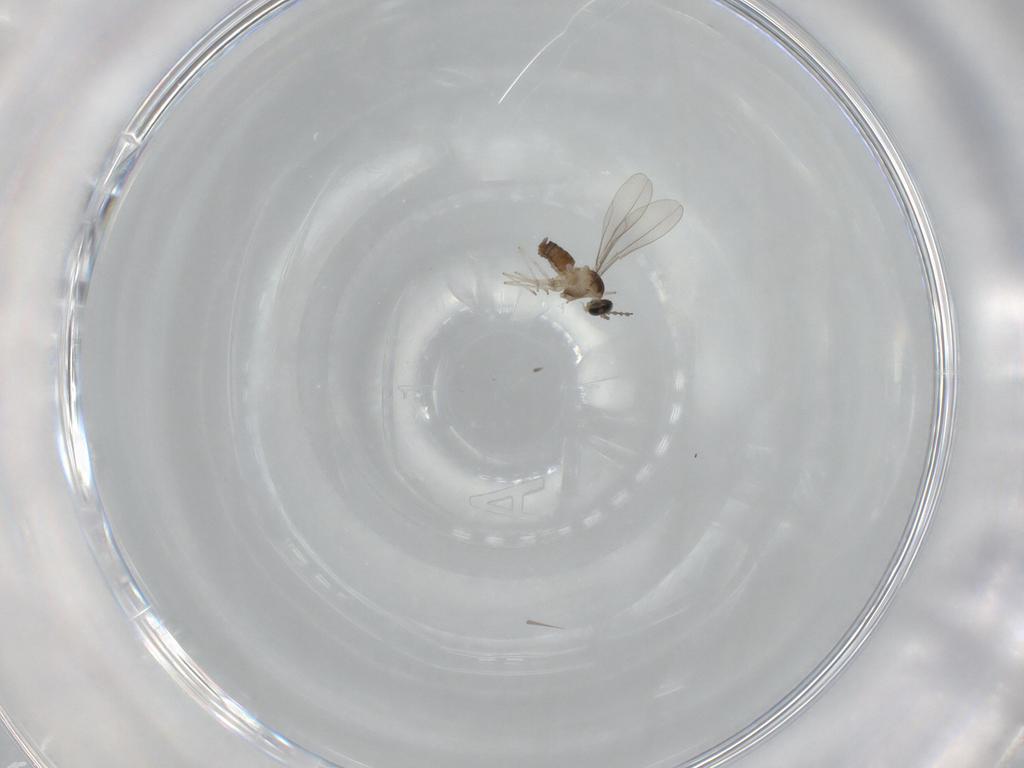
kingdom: Animalia
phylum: Arthropoda
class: Insecta
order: Diptera
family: Cecidomyiidae
